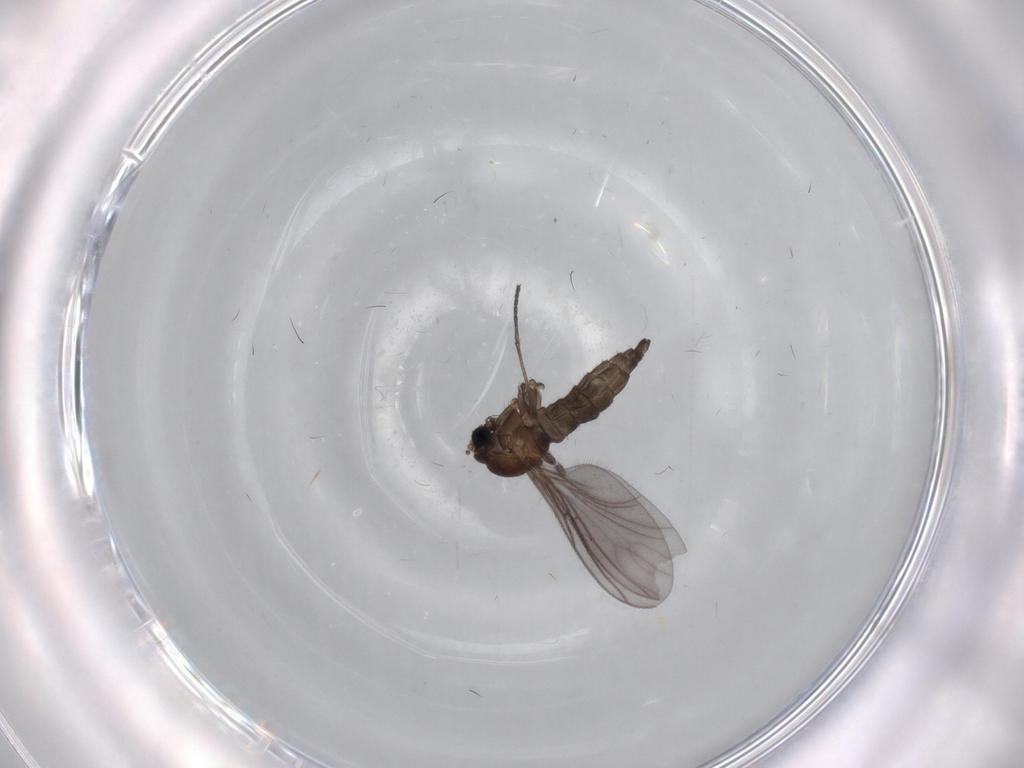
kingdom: Animalia
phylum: Arthropoda
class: Insecta
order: Diptera
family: Sciaridae
